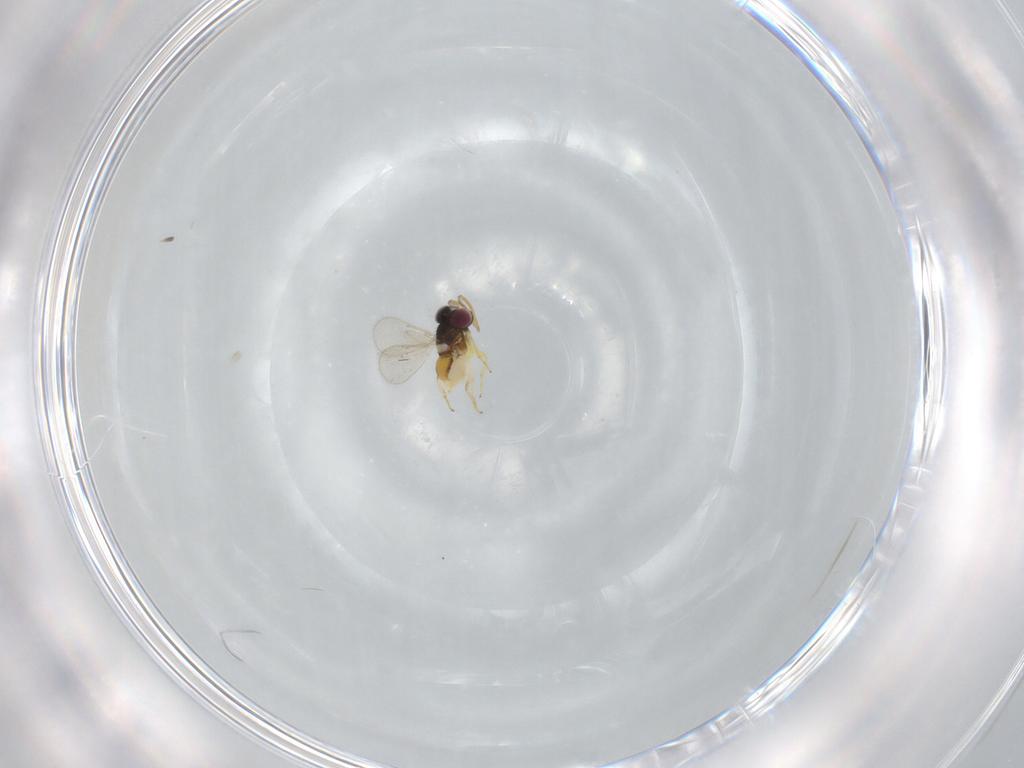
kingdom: Animalia
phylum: Arthropoda
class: Insecta
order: Hymenoptera
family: Aphelinidae
